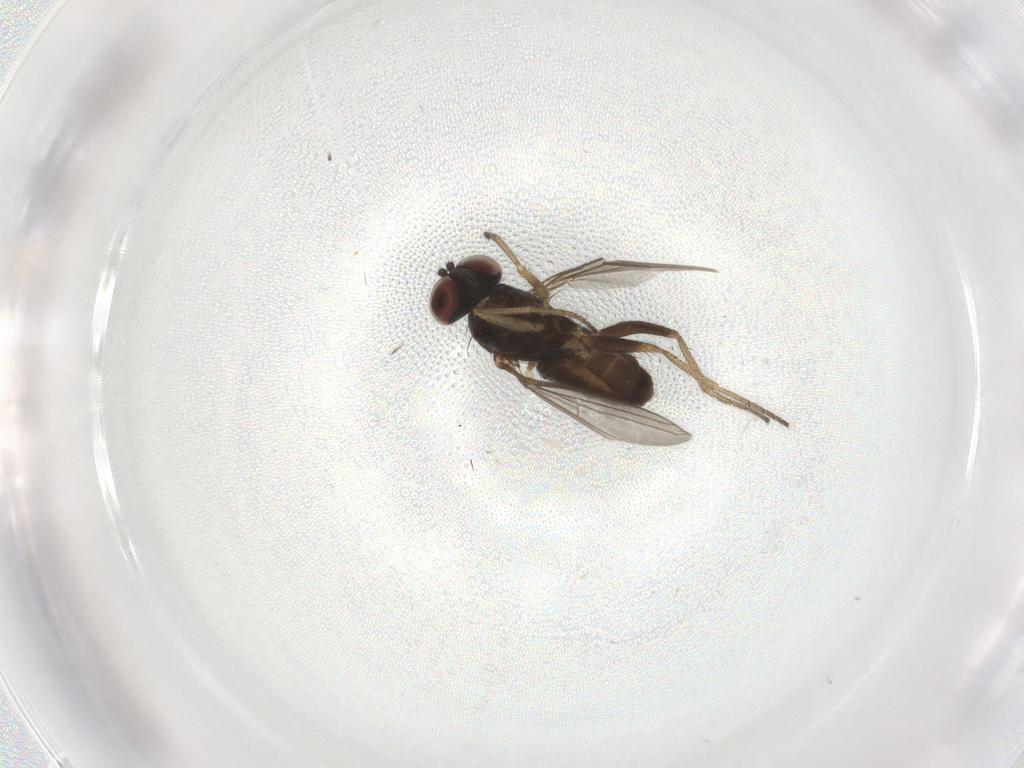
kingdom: Animalia
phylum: Arthropoda
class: Insecta
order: Diptera
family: Dolichopodidae
